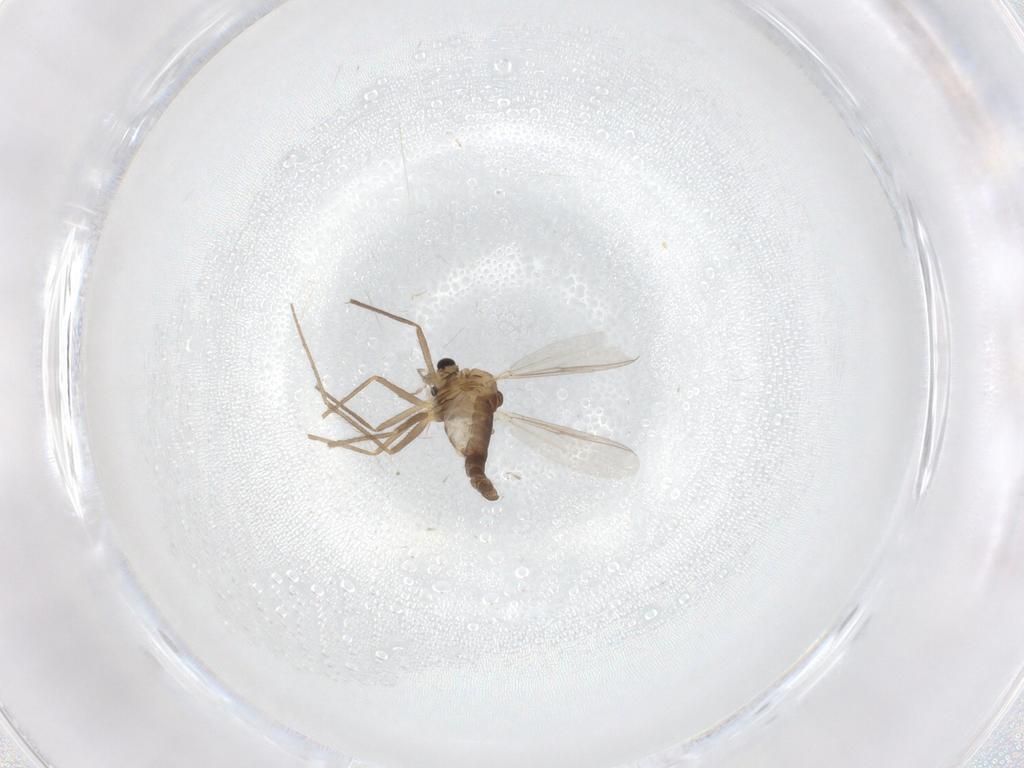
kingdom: Animalia
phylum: Arthropoda
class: Insecta
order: Diptera
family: Chironomidae
